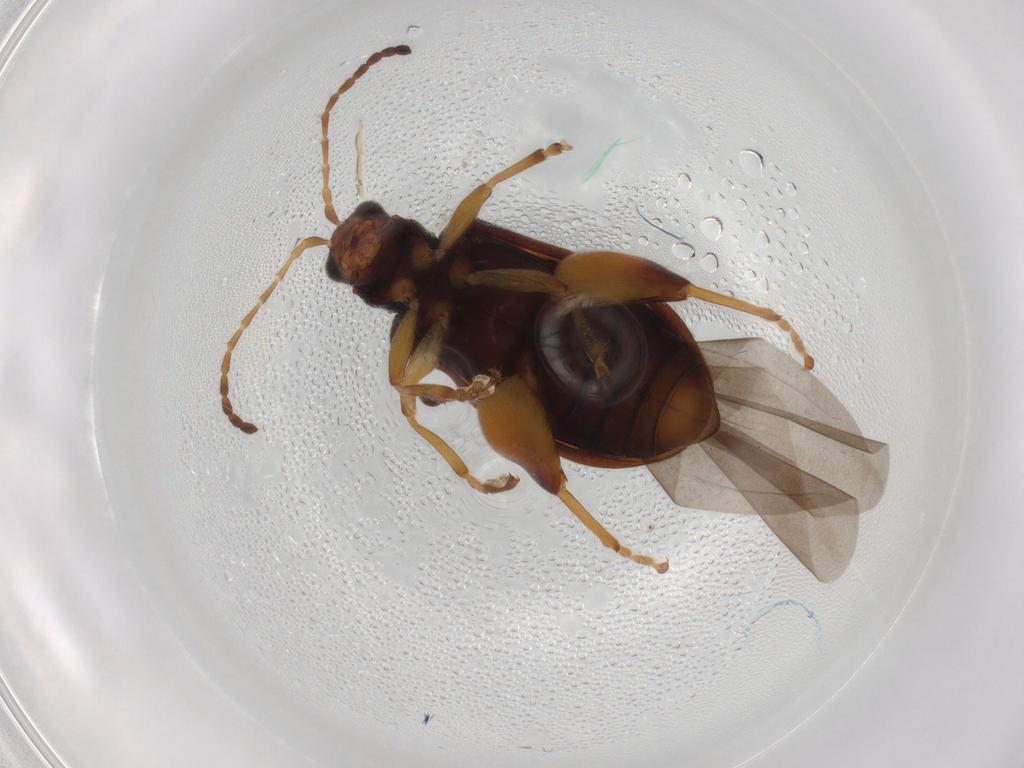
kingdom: Animalia
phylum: Arthropoda
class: Insecta
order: Coleoptera
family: Chrysomelidae
